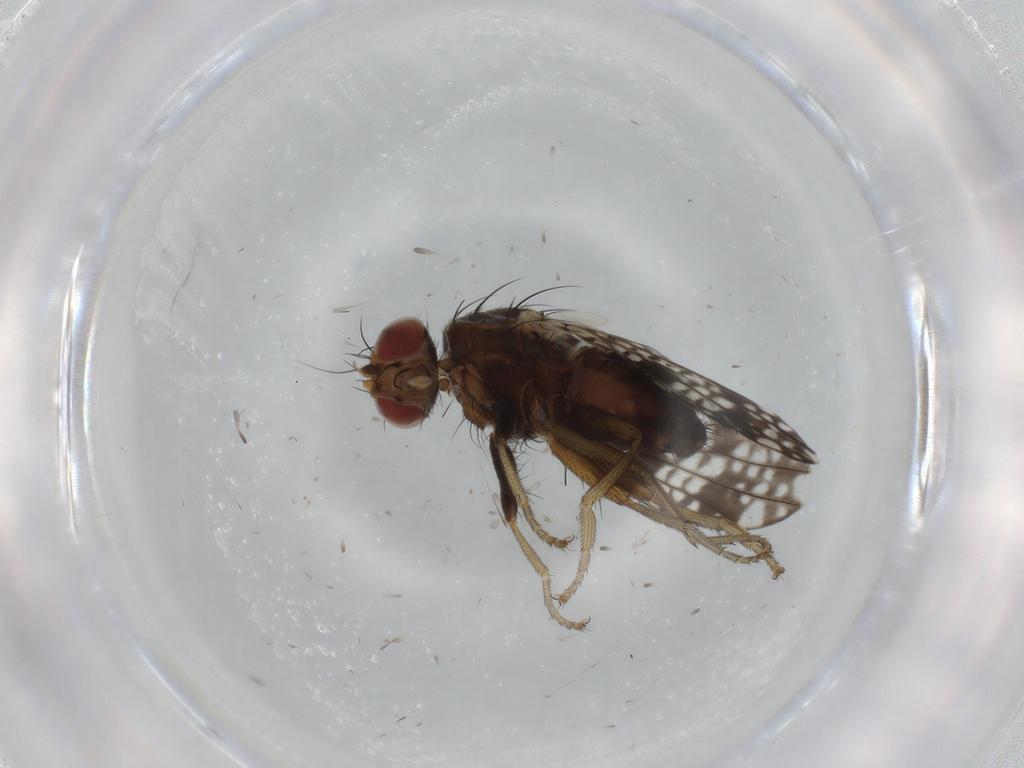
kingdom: Animalia
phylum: Arthropoda
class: Insecta
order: Diptera
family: Tephritidae
